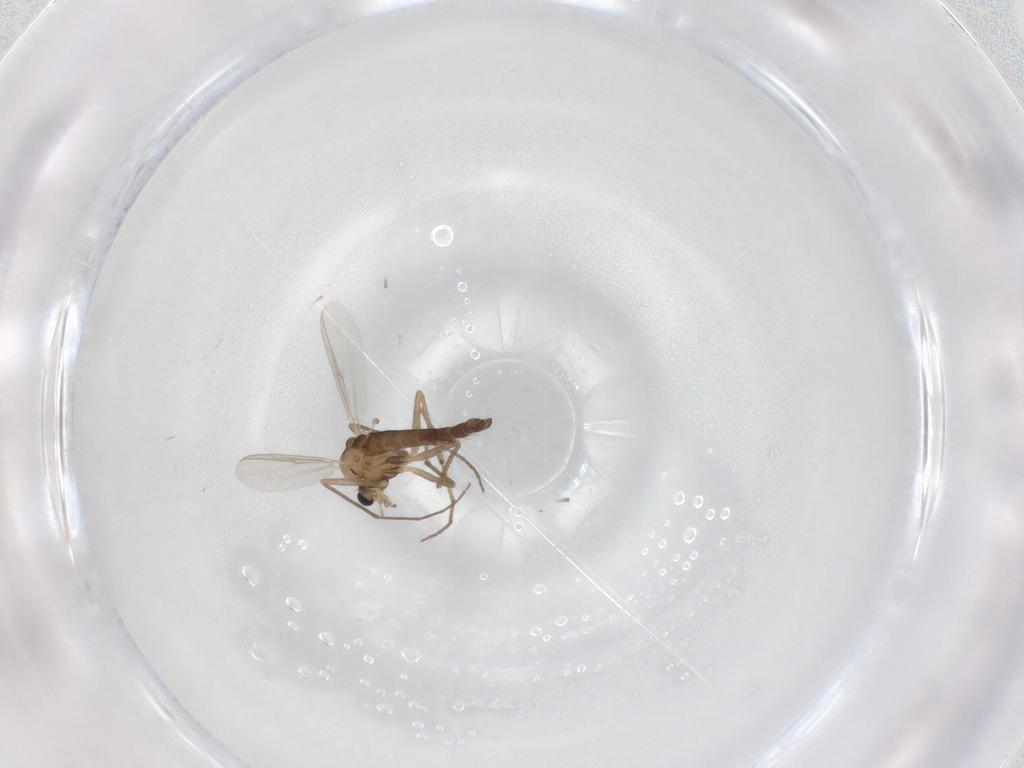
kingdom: Animalia
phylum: Arthropoda
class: Insecta
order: Diptera
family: Chironomidae
